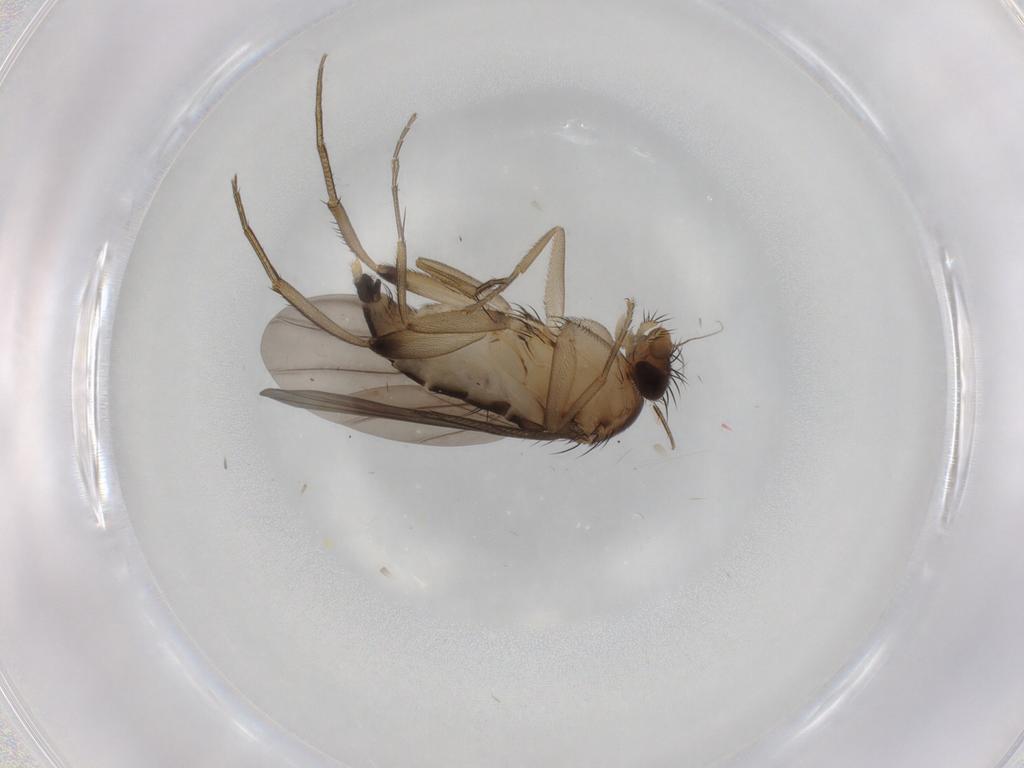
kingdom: Animalia
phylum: Arthropoda
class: Insecta
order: Diptera
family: Phoridae
